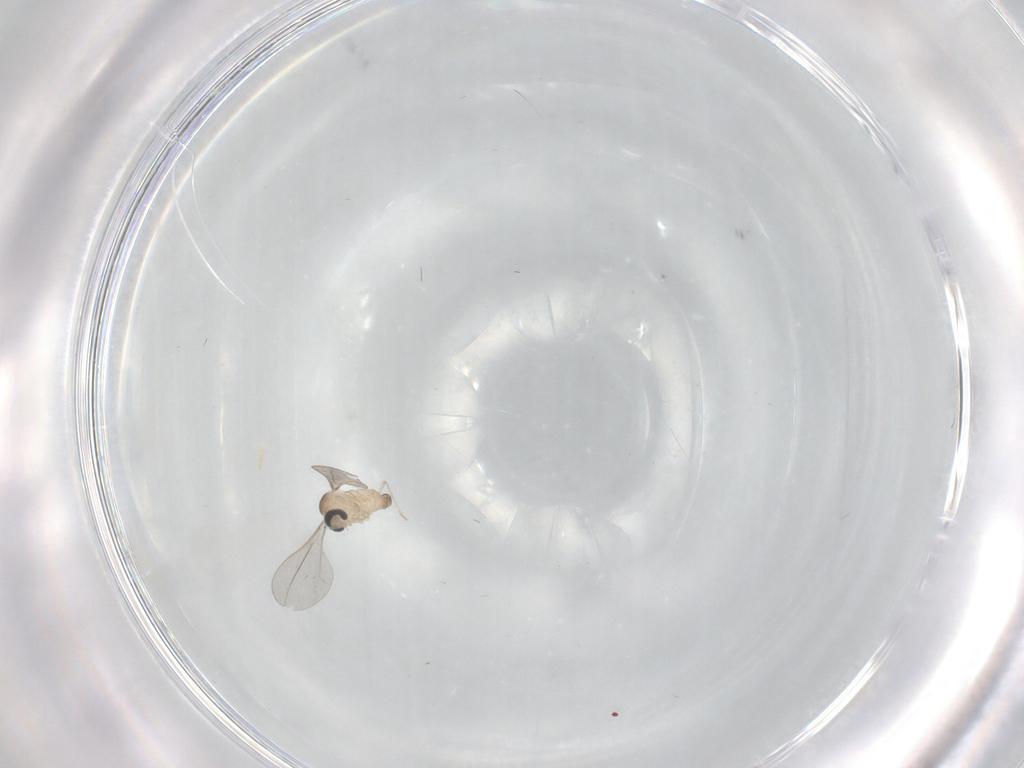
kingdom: Animalia
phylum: Arthropoda
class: Insecta
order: Diptera
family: Cecidomyiidae
